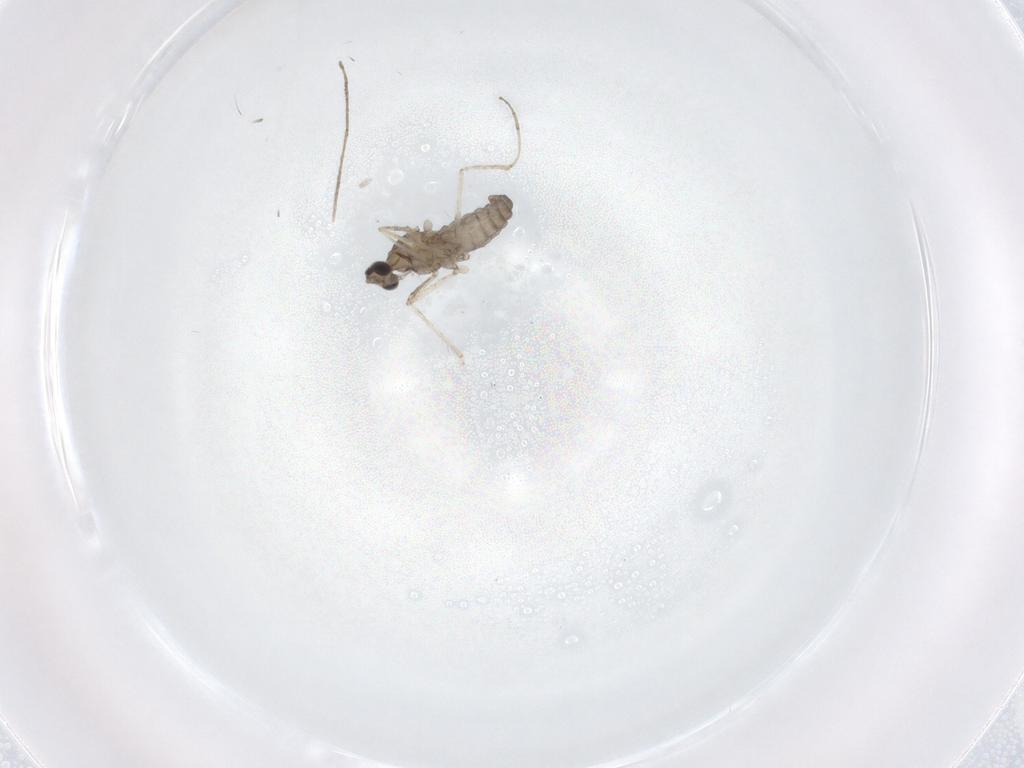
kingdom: Animalia
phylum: Arthropoda
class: Insecta
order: Diptera
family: Cecidomyiidae
